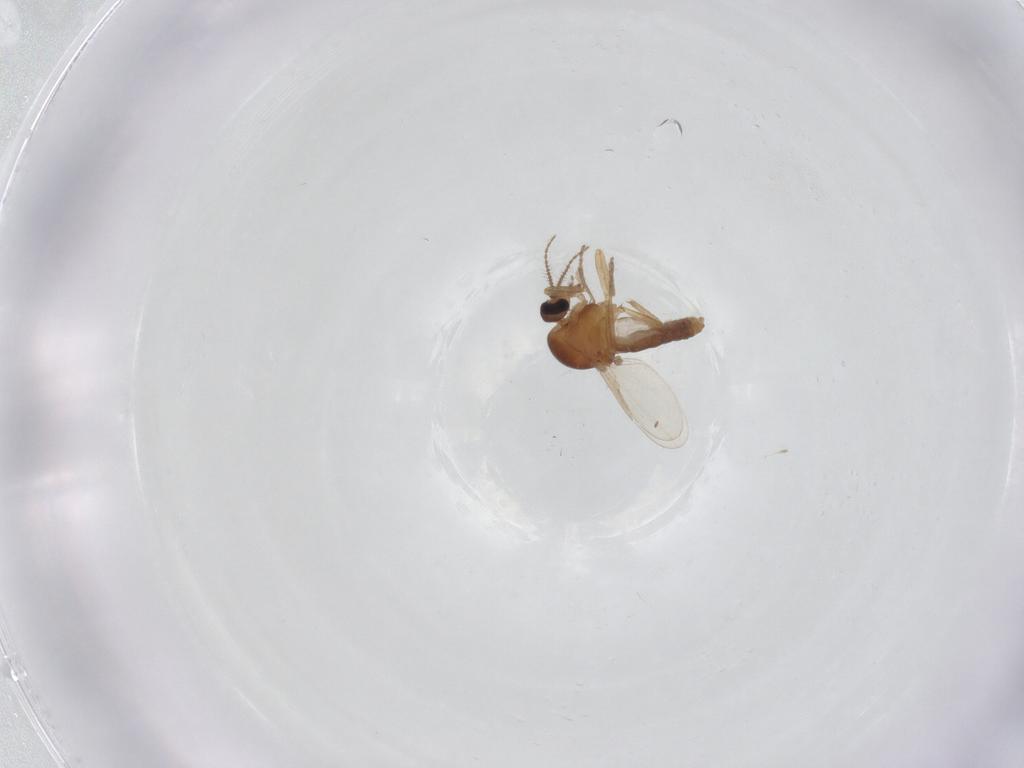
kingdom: Animalia
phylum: Arthropoda
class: Insecta
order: Diptera
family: Ceratopogonidae
